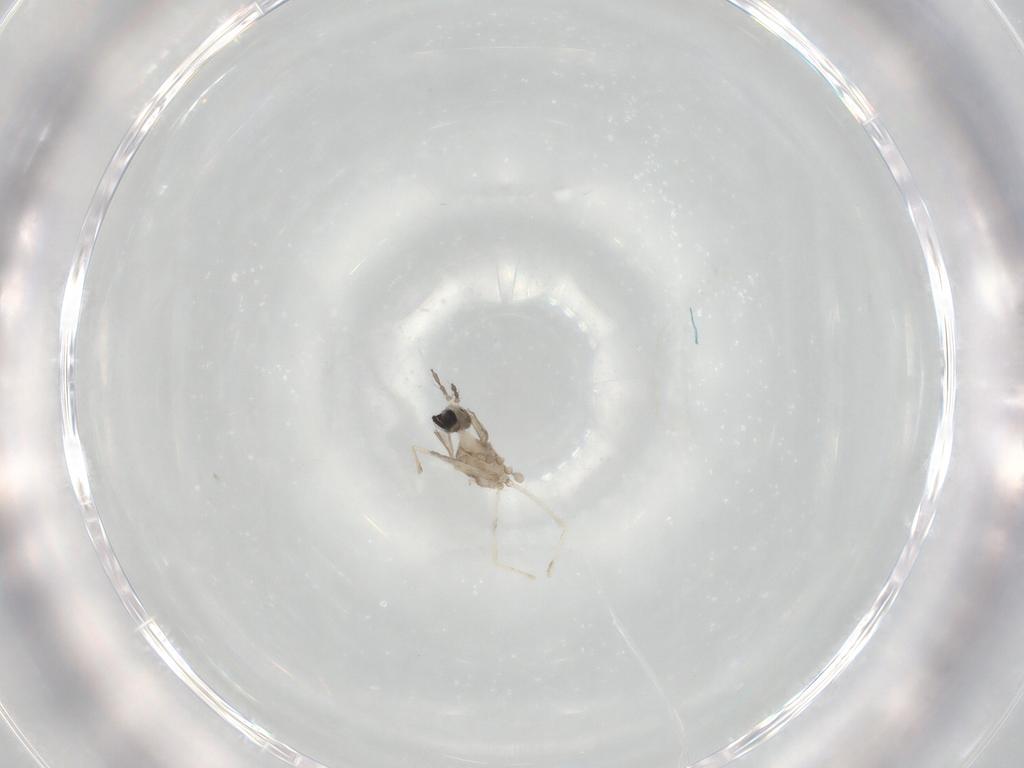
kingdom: Animalia
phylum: Arthropoda
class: Insecta
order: Diptera
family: Cecidomyiidae
